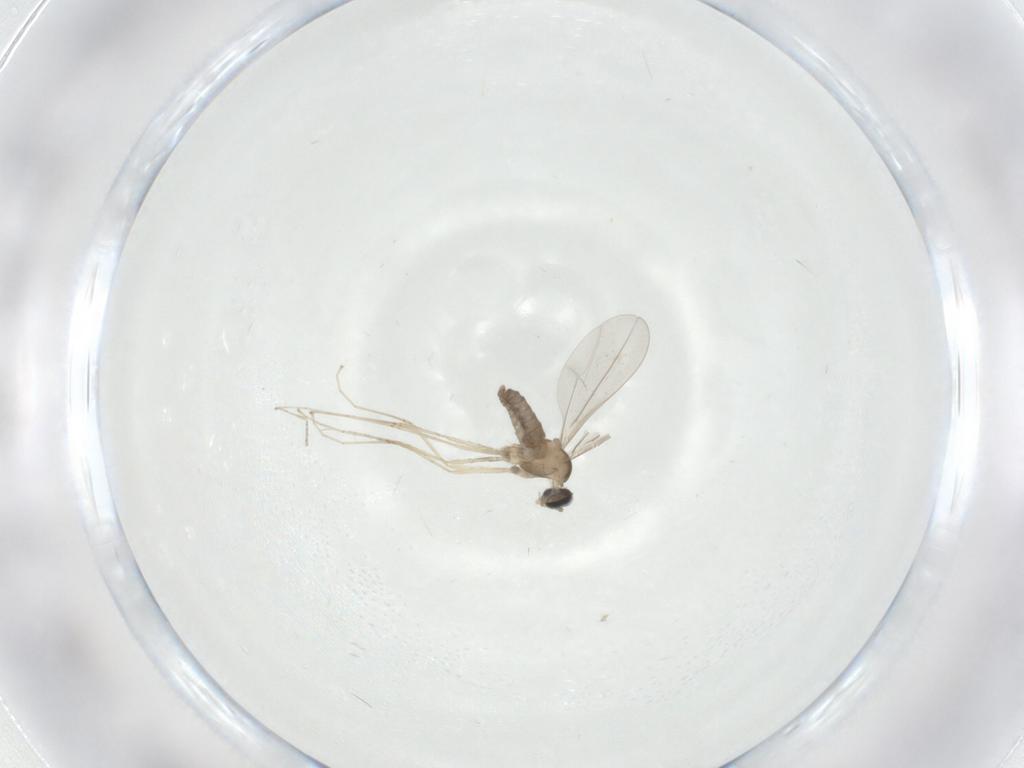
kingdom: Animalia
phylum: Arthropoda
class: Insecta
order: Diptera
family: Cecidomyiidae
